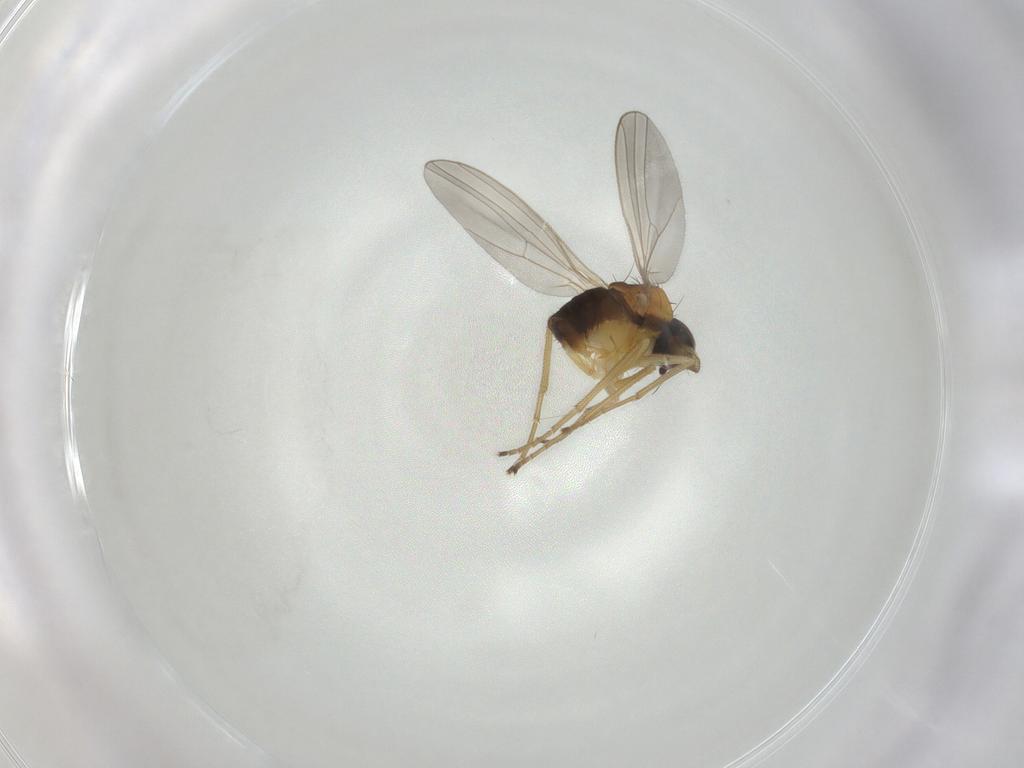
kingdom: Animalia
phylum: Arthropoda
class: Insecta
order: Diptera
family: Dolichopodidae
